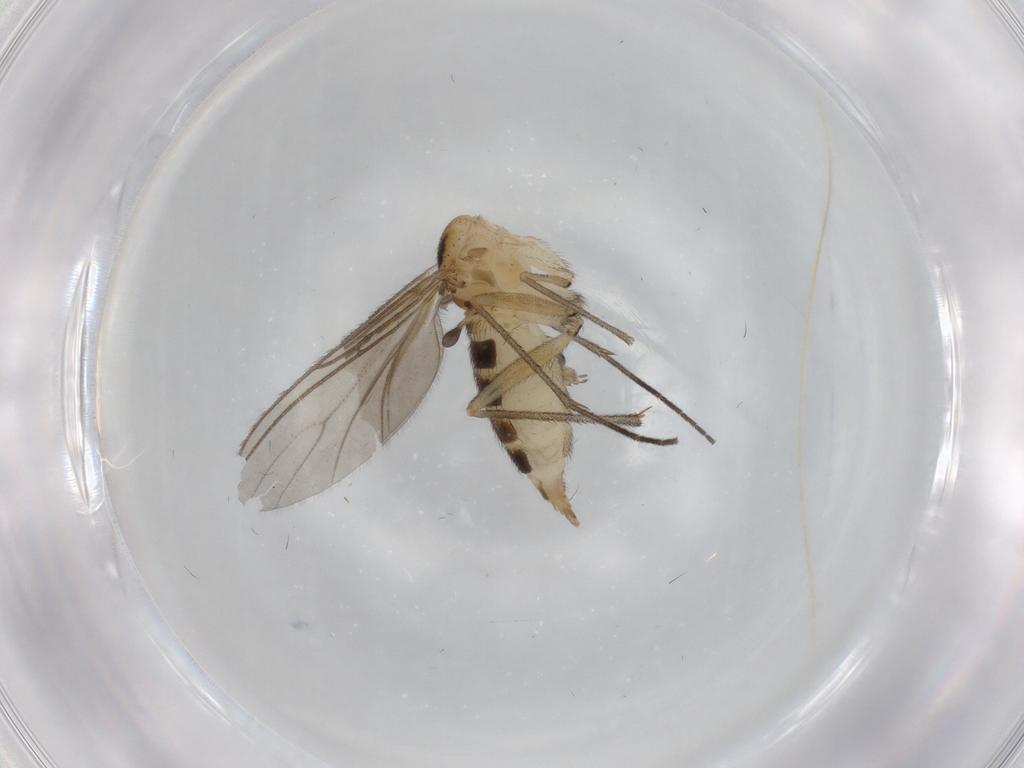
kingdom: Animalia
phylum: Arthropoda
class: Insecta
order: Diptera
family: Sciaridae
